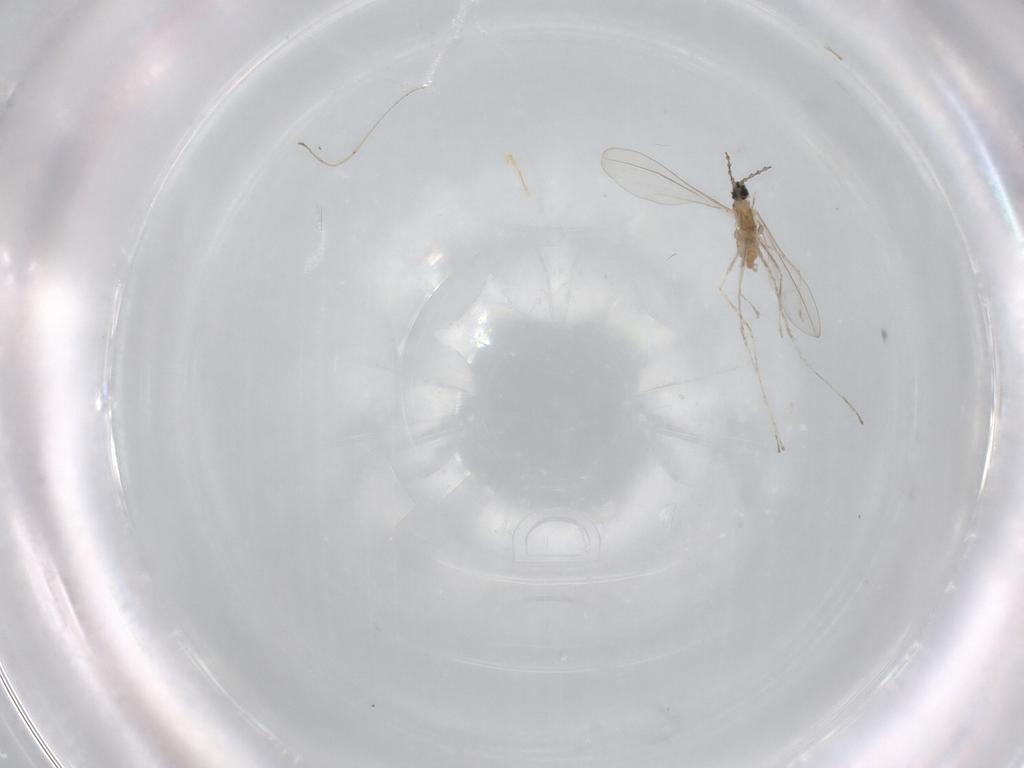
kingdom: Animalia
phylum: Arthropoda
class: Insecta
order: Diptera
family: Cecidomyiidae
